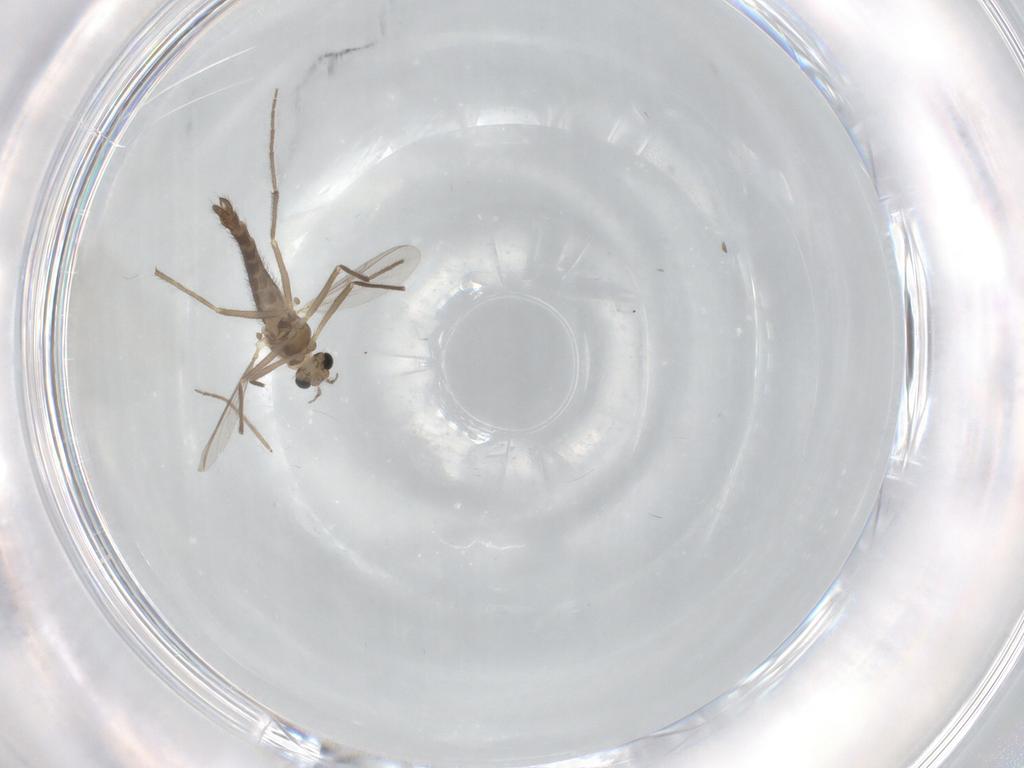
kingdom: Animalia
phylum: Arthropoda
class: Insecta
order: Diptera
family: Chironomidae
